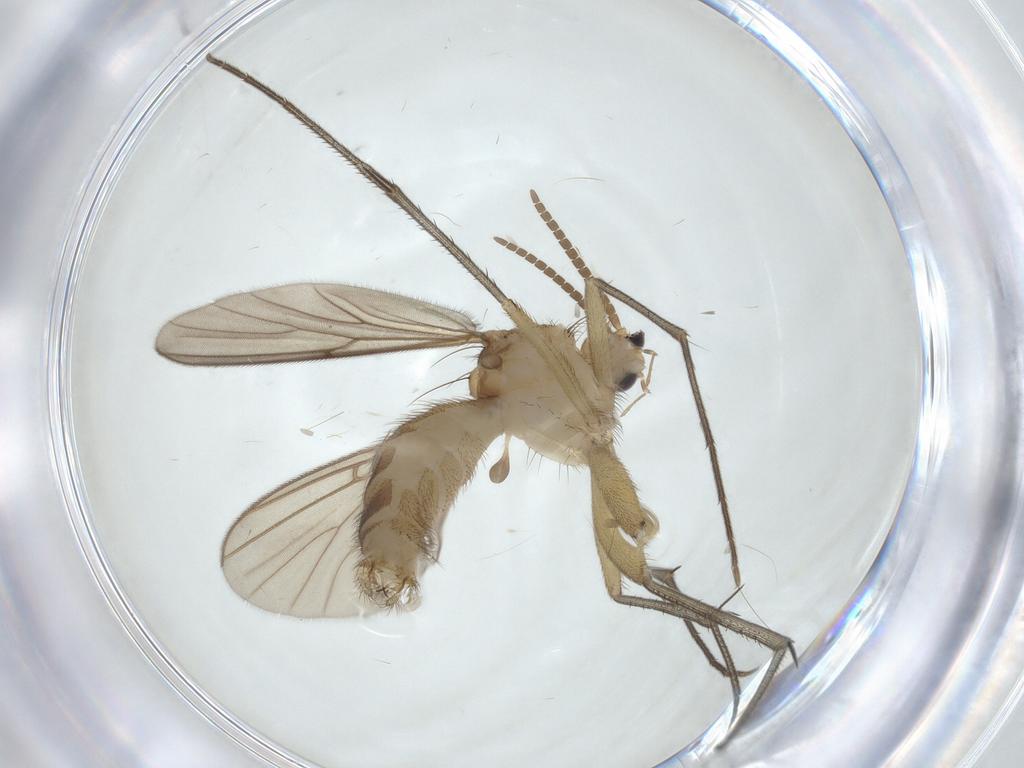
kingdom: Animalia
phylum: Arthropoda
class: Insecta
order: Diptera
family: Mycetophilidae
